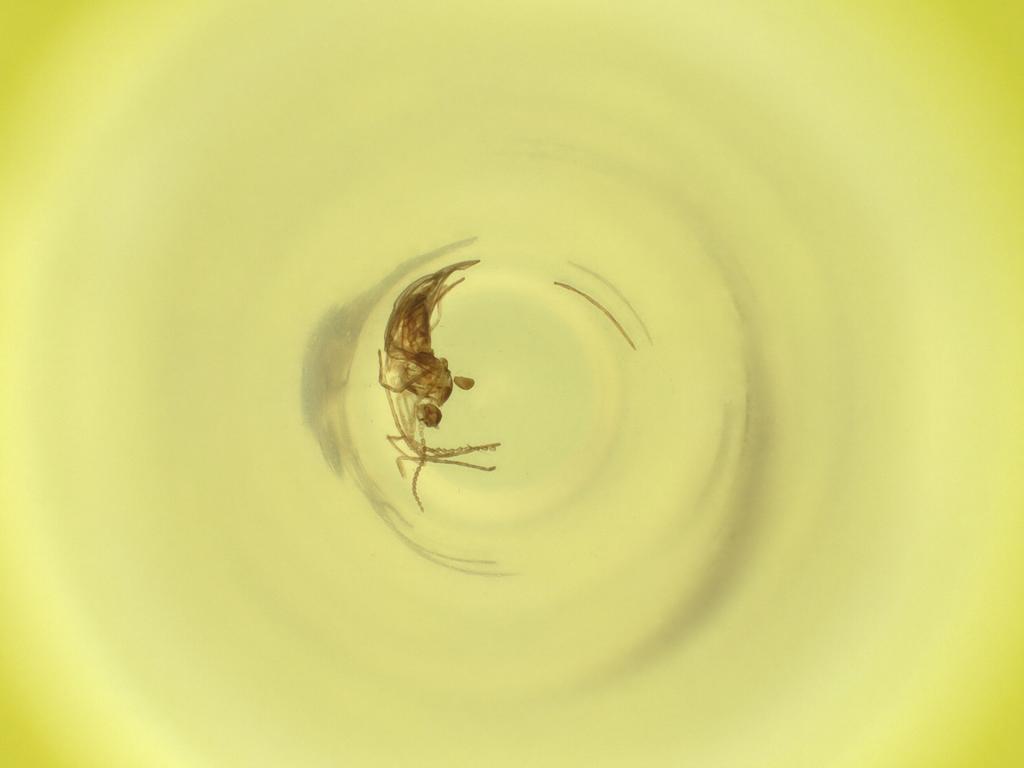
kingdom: Animalia
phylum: Arthropoda
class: Insecta
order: Diptera
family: Cecidomyiidae
